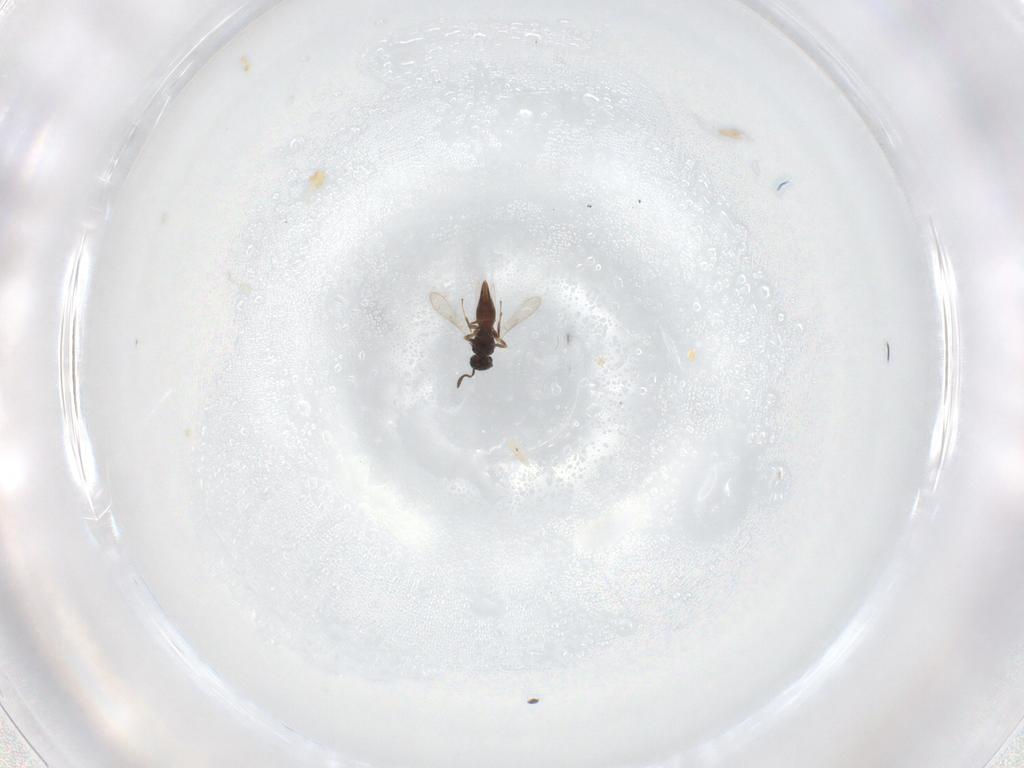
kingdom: Animalia
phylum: Arthropoda
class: Insecta
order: Hymenoptera
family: Scelionidae
